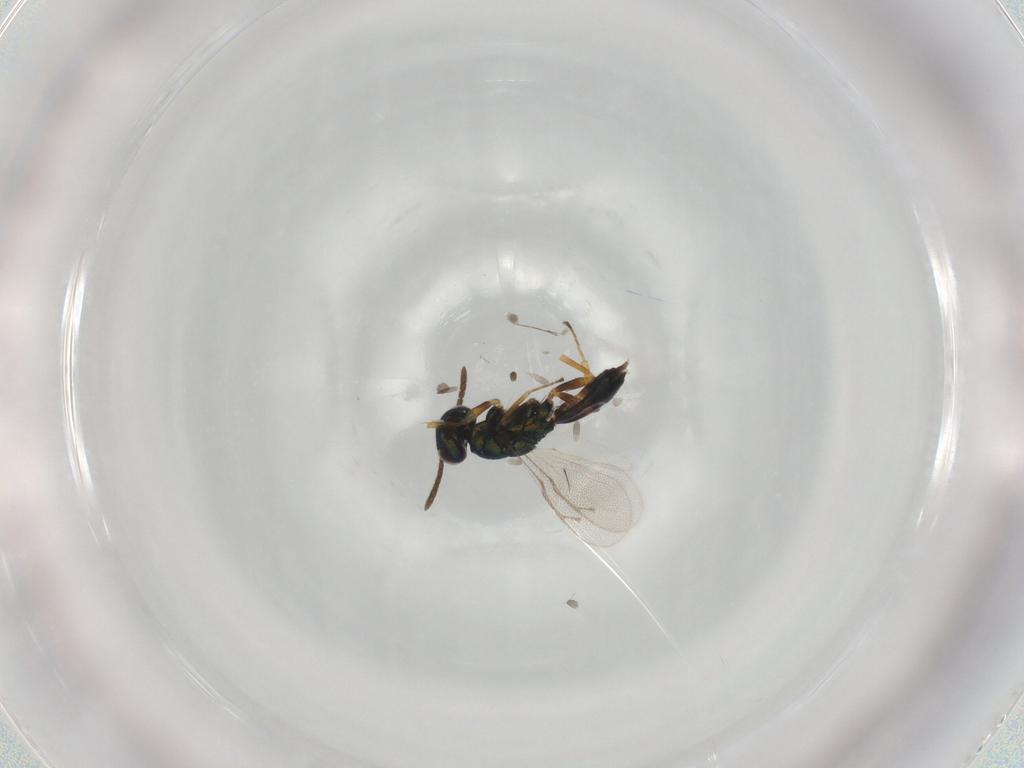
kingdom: Animalia
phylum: Arthropoda
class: Insecta
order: Hymenoptera
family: Pteromalidae
